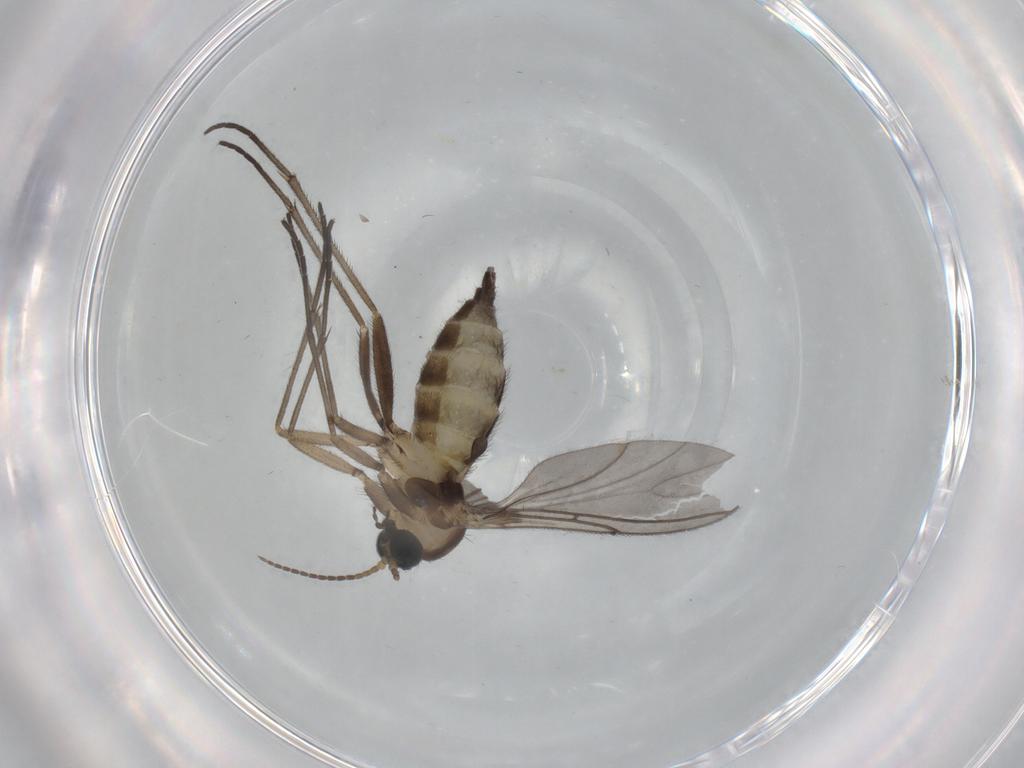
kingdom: Animalia
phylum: Arthropoda
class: Insecta
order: Diptera
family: Sciaridae
